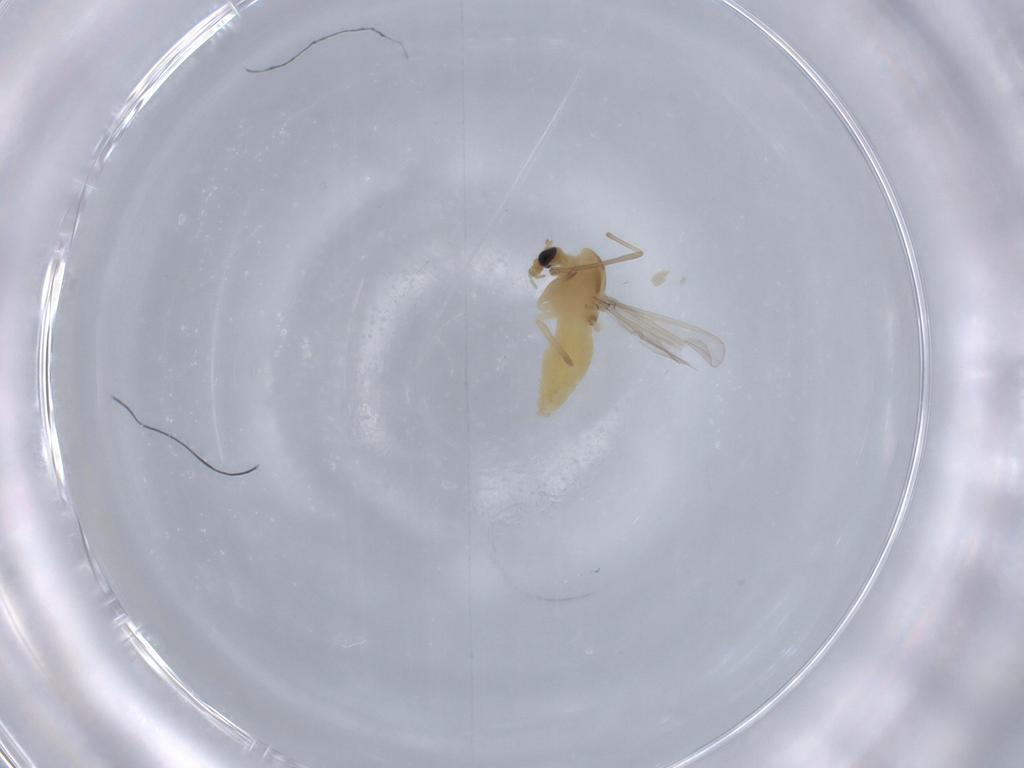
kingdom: Animalia
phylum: Arthropoda
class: Insecta
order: Diptera
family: Chironomidae
